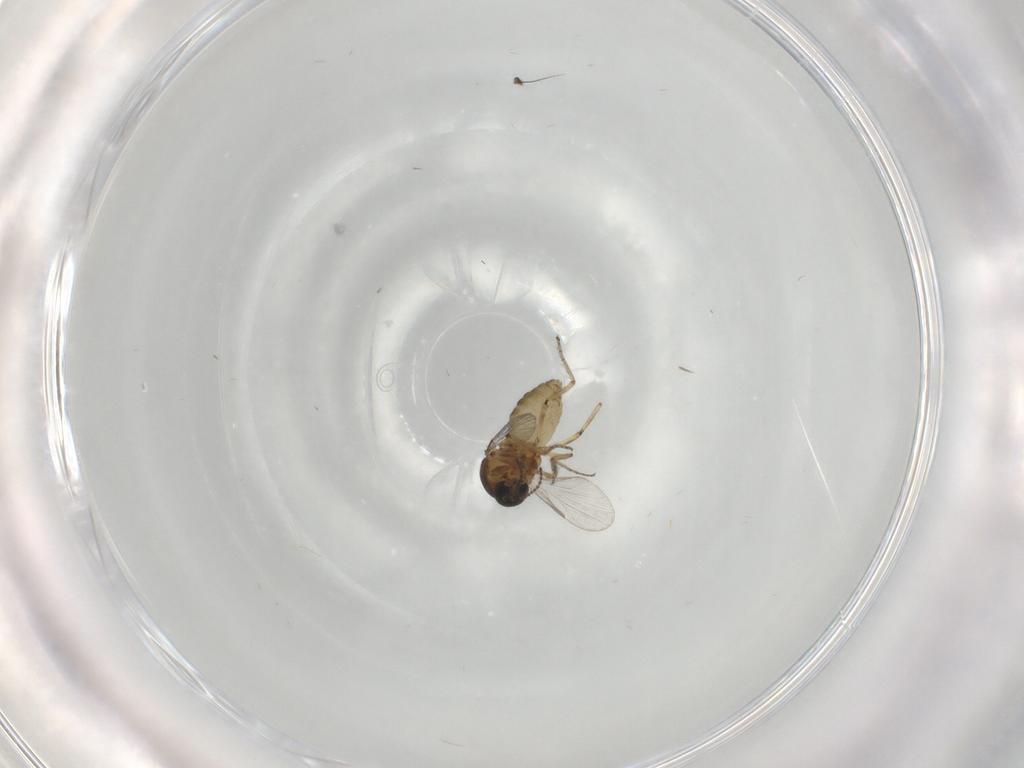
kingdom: Animalia
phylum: Arthropoda
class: Insecta
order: Diptera
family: Ceratopogonidae
